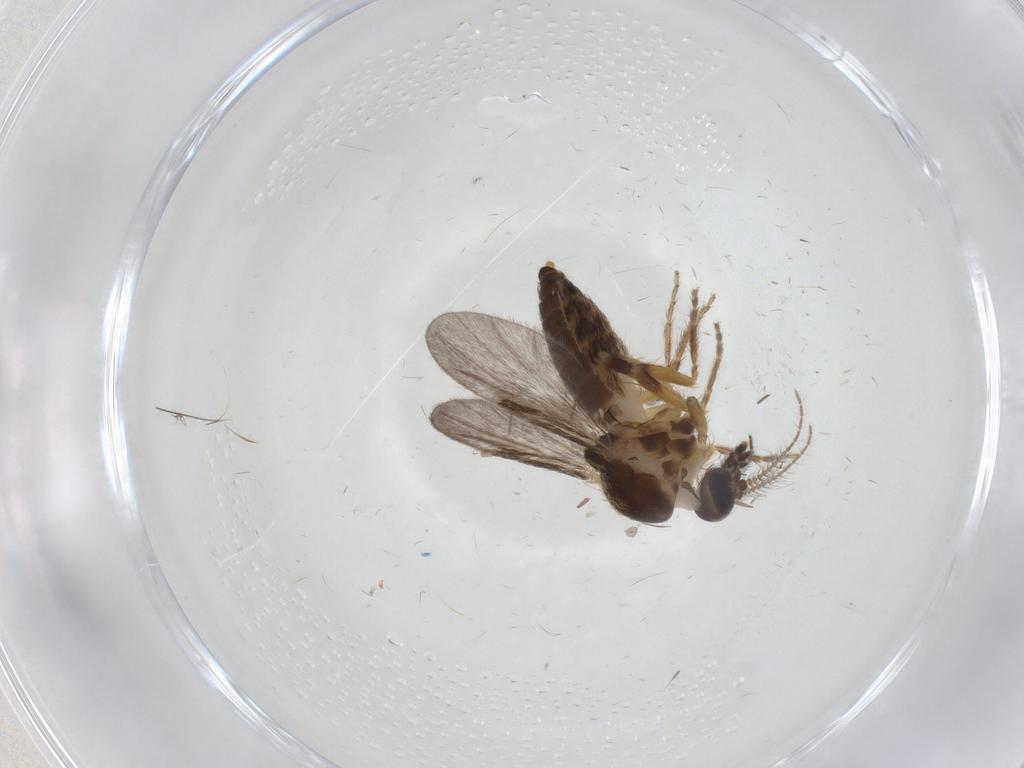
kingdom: Animalia
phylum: Arthropoda
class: Insecta
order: Diptera
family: Ceratopogonidae
